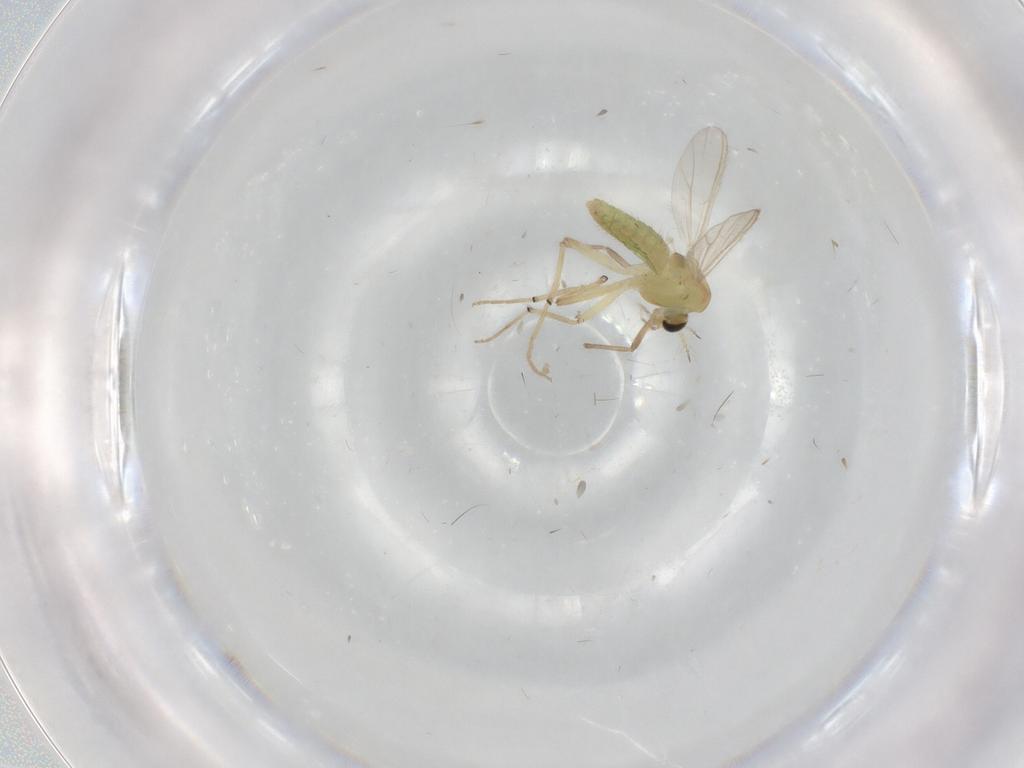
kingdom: Animalia
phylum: Arthropoda
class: Insecta
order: Diptera
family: Chironomidae
